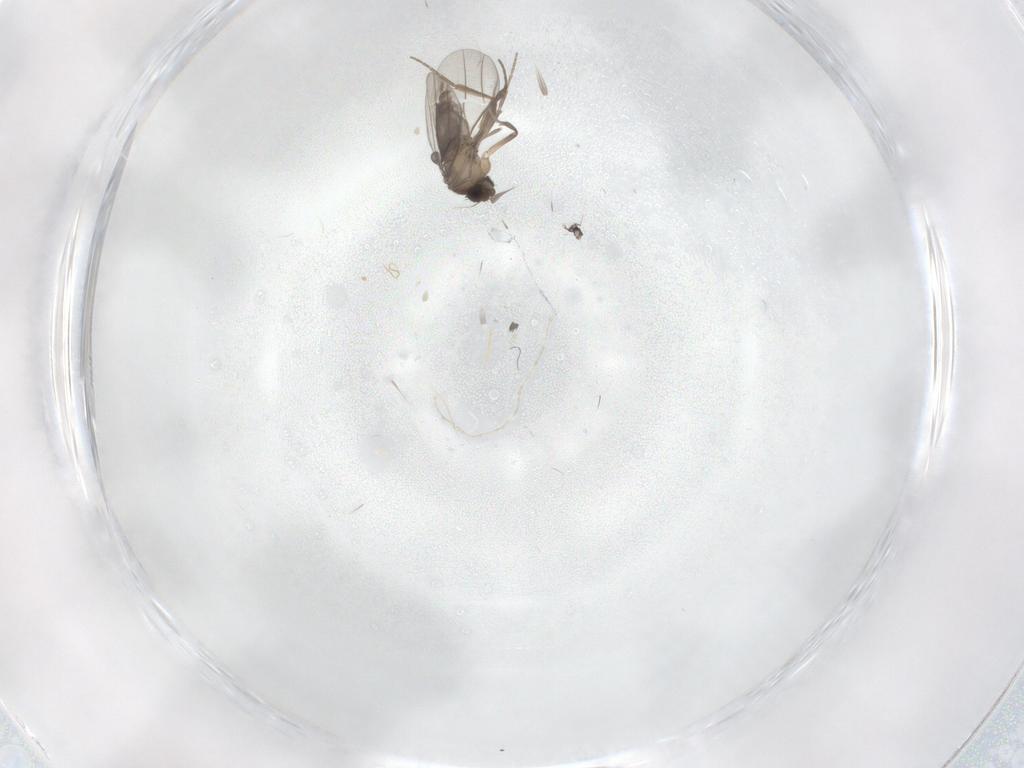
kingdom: Animalia
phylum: Arthropoda
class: Insecta
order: Diptera
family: Phoridae
